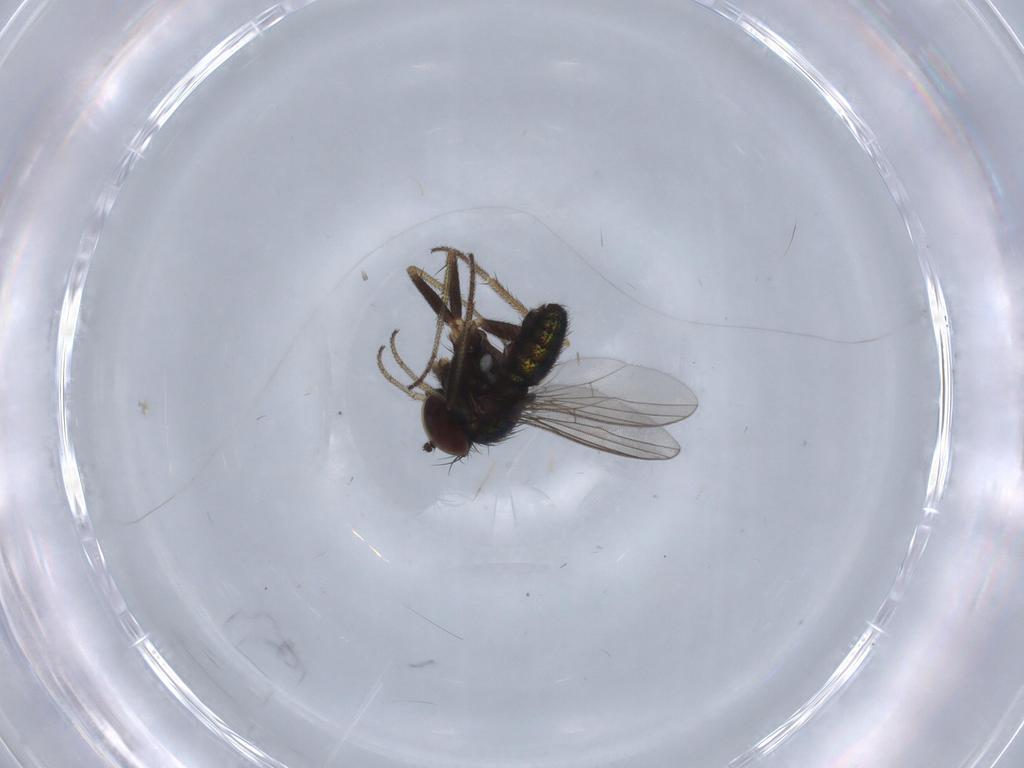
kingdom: Animalia
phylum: Arthropoda
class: Insecta
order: Diptera
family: Dolichopodidae
